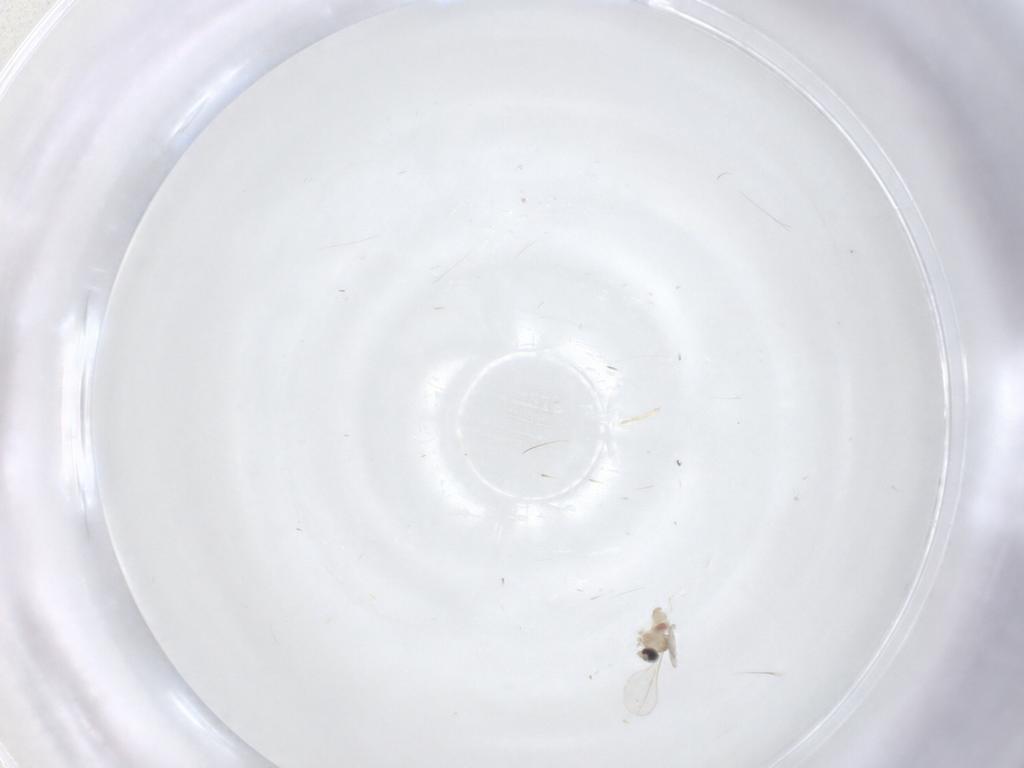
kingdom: Animalia
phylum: Arthropoda
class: Insecta
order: Diptera
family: Cecidomyiidae
